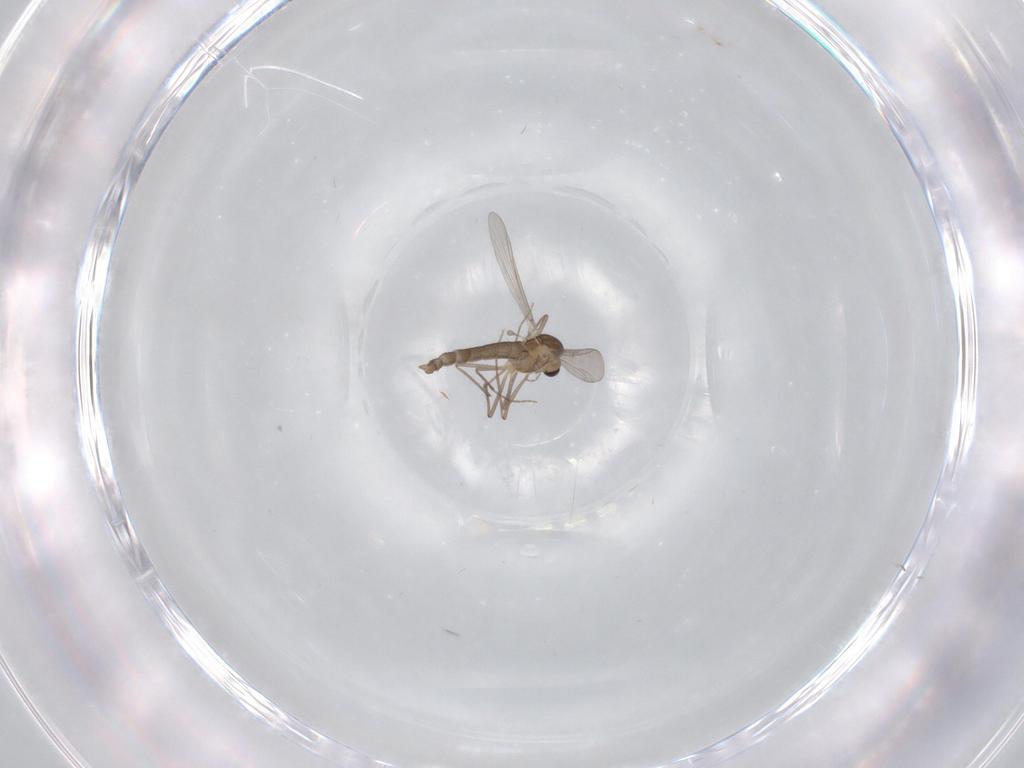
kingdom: Animalia
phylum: Arthropoda
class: Insecta
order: Diptera
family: Chironomidae
